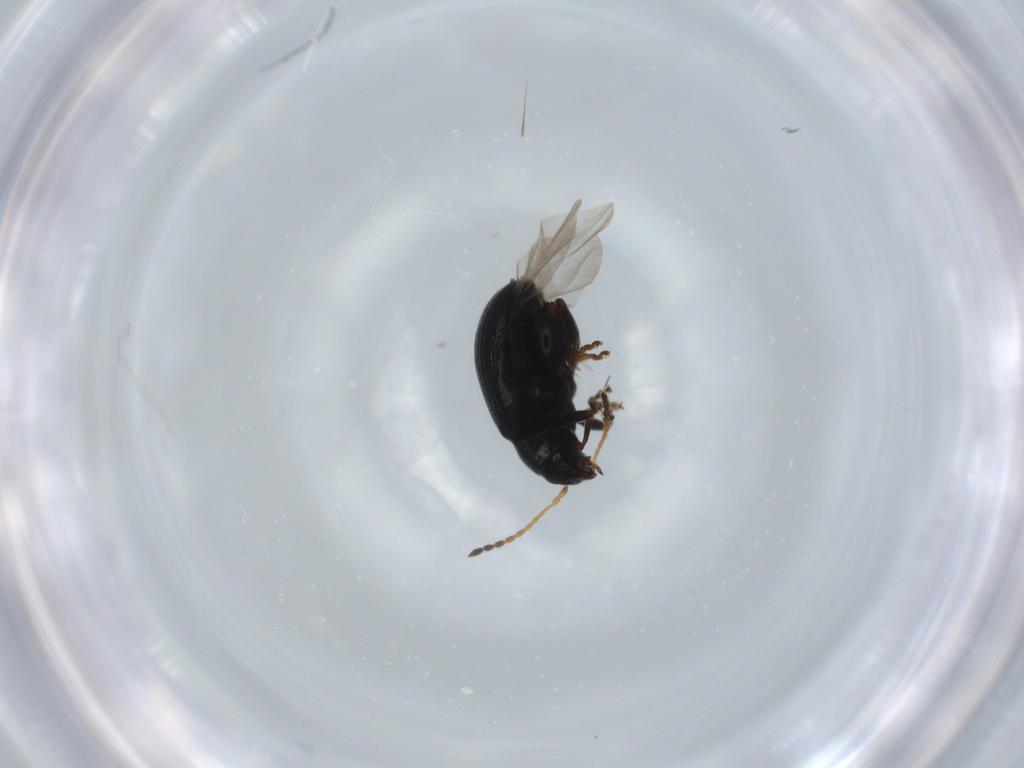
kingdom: Animalia
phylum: Arthropoda
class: Insecta
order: Coleoptera
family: Chrysomelidae
